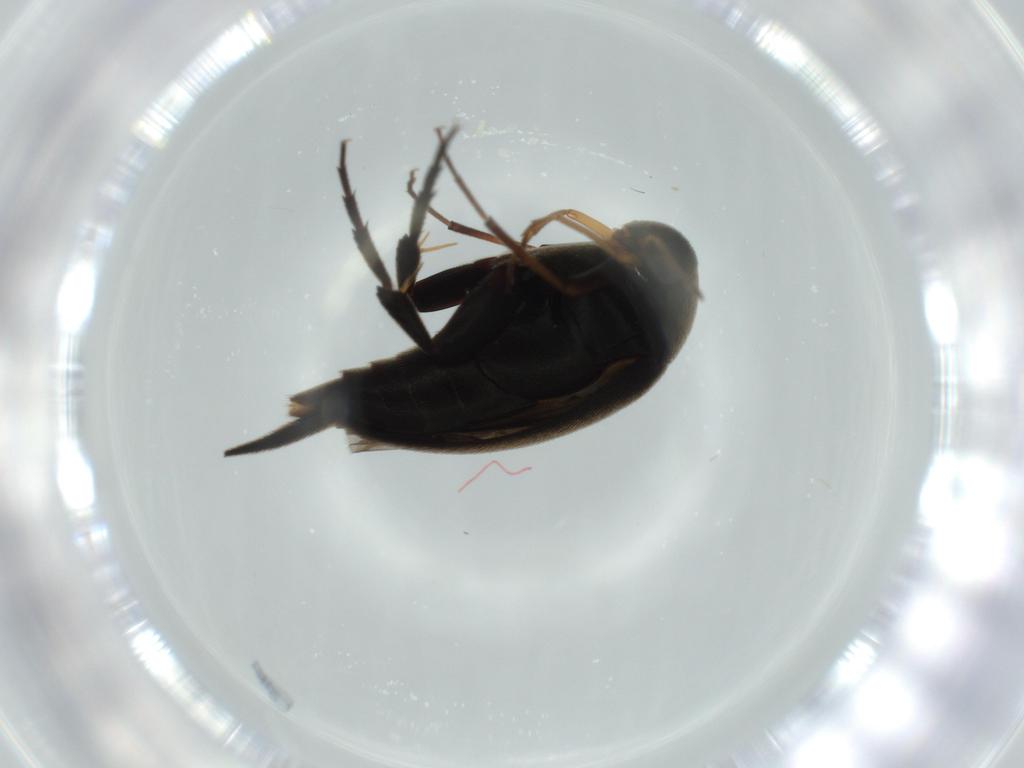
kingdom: Animalia
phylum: Arthropoda
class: Insecta
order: Coleoptera
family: Mordellidae
